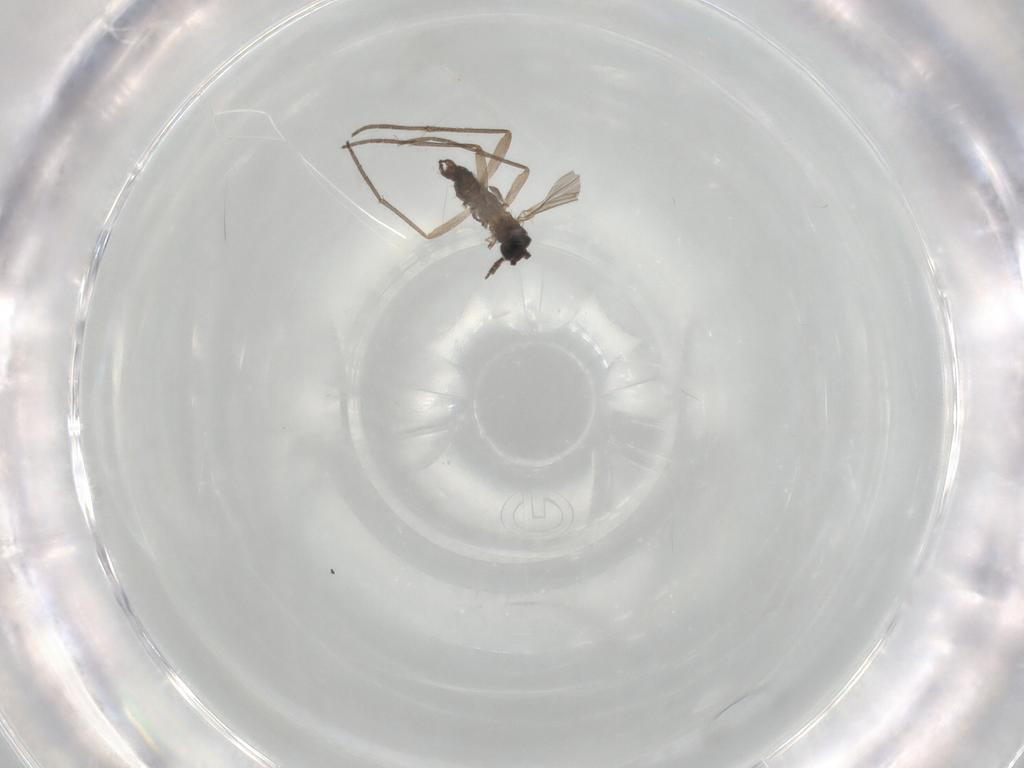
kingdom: Animalia
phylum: Arthropoda
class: Insecta
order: Diptera
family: Sciaridae
